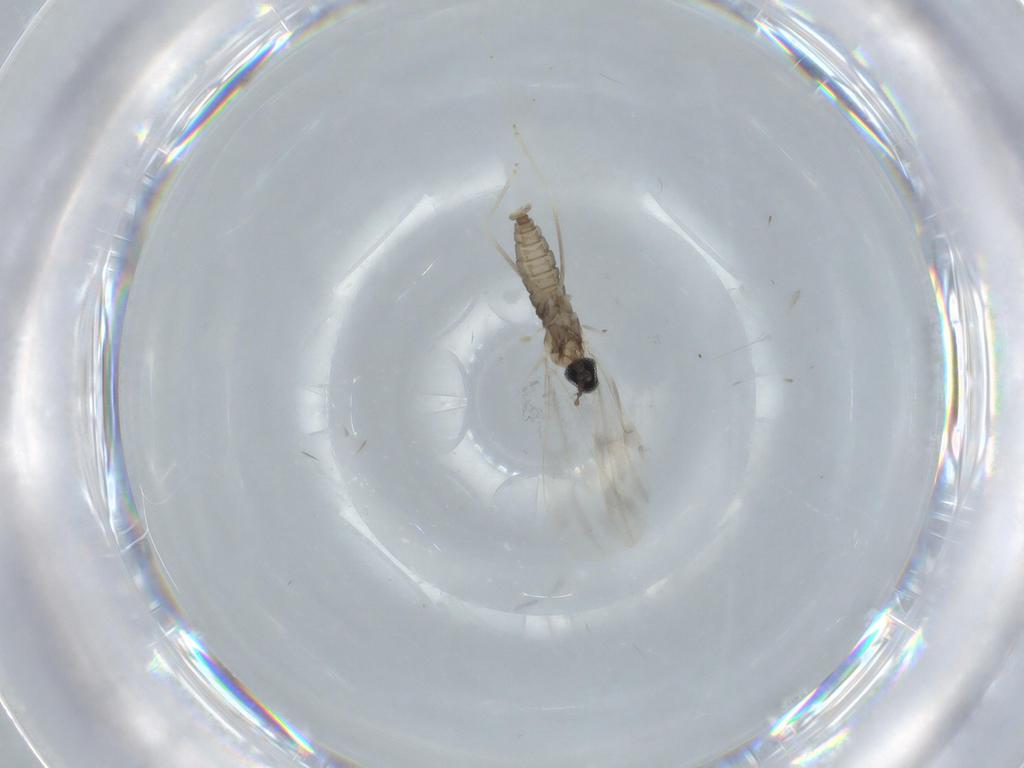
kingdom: Animalia
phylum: Arthropoda
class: Insecta
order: Diptera
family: Cecidomyiidae
